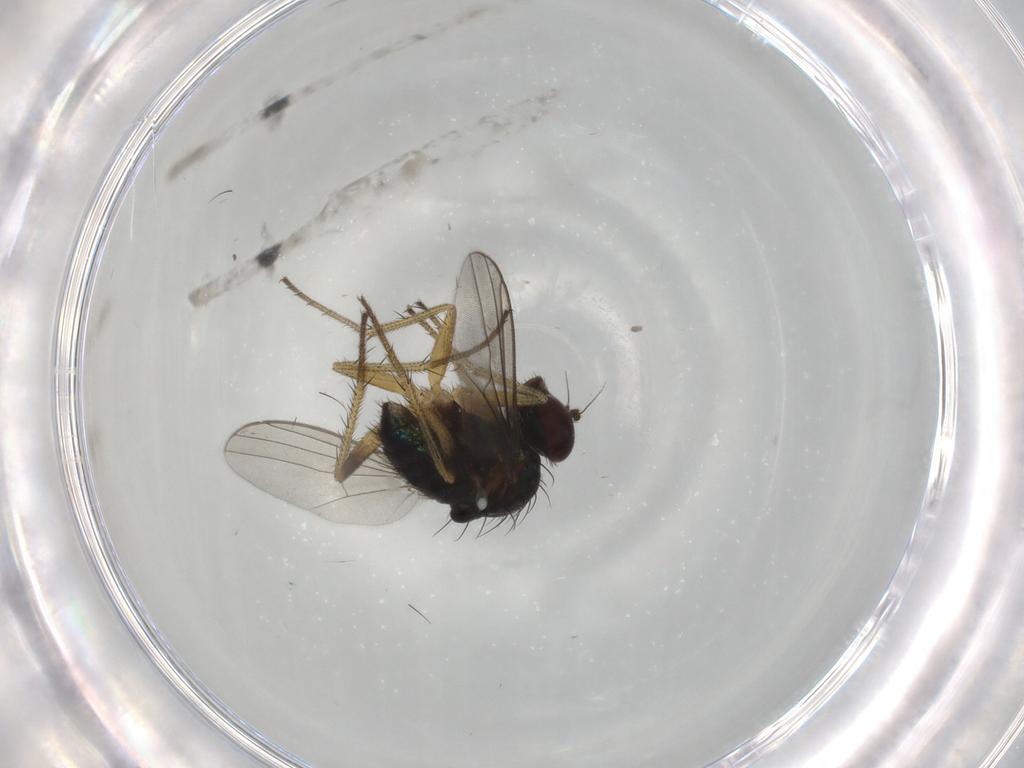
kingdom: Animalia
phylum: Arthropoda
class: Insecta
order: Diptera
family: Dolichopodidae
